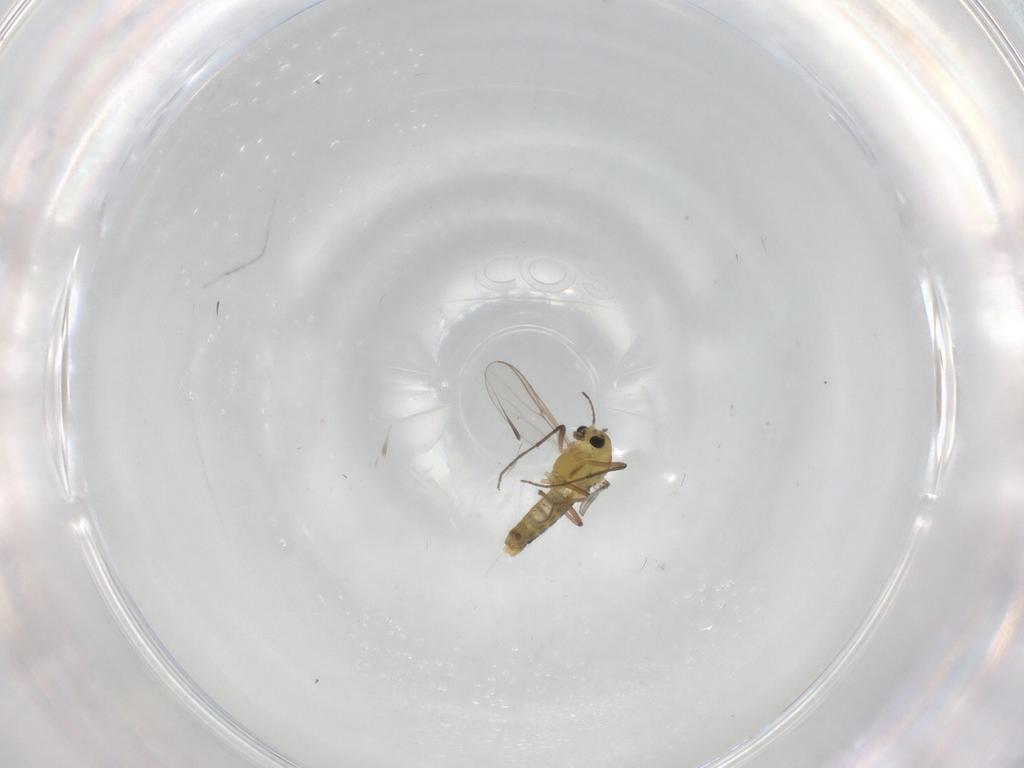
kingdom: Animalia
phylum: Arthropoda
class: Insecta
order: Diptera
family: Chironomidae
